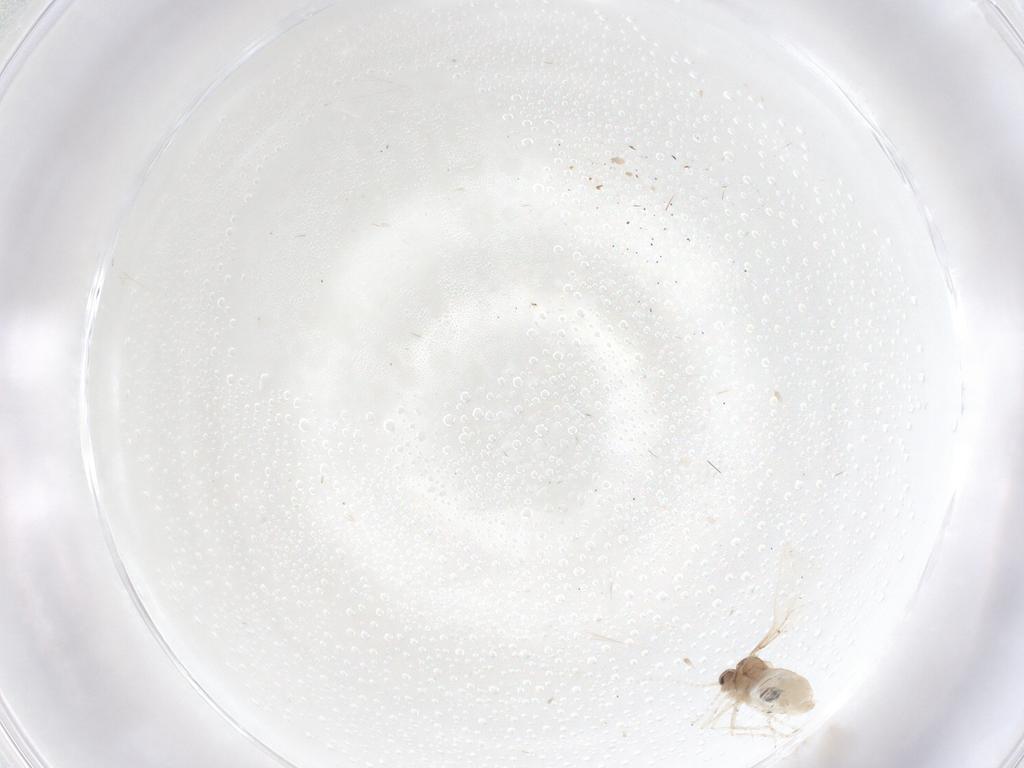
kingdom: Animalia
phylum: Arthropoda
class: Insecta
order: Diptera
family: Cecidomyiidae
